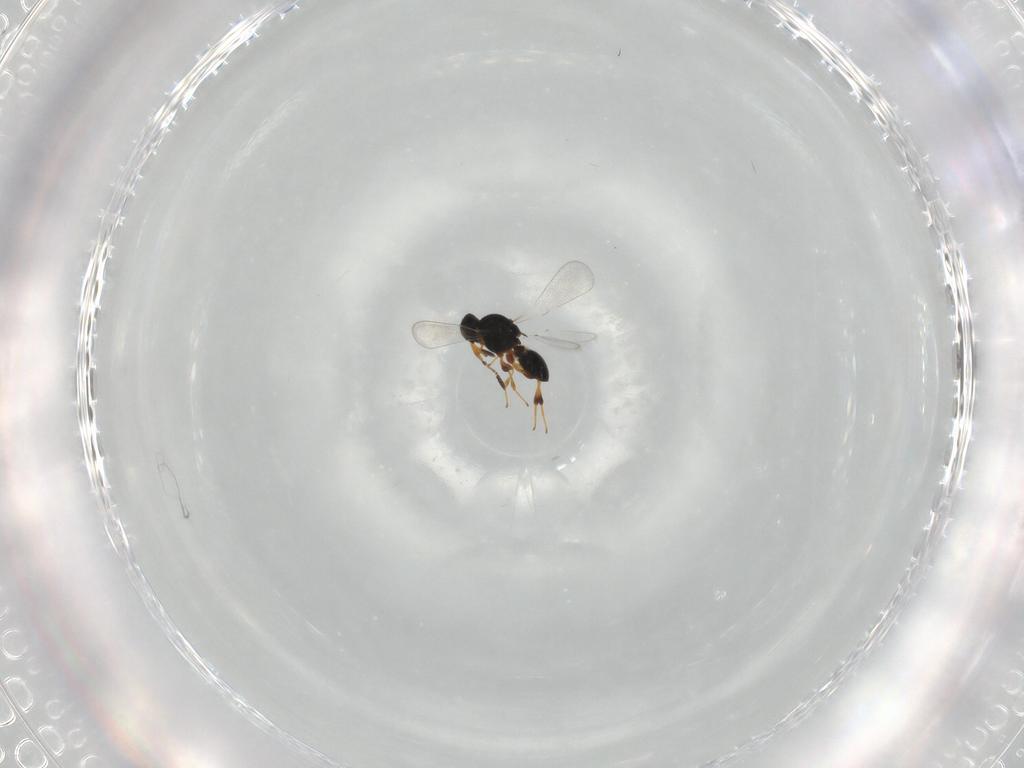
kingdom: Animalia
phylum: Arthropoda
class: Insecta
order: Hymenoptera
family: Platygastridae
